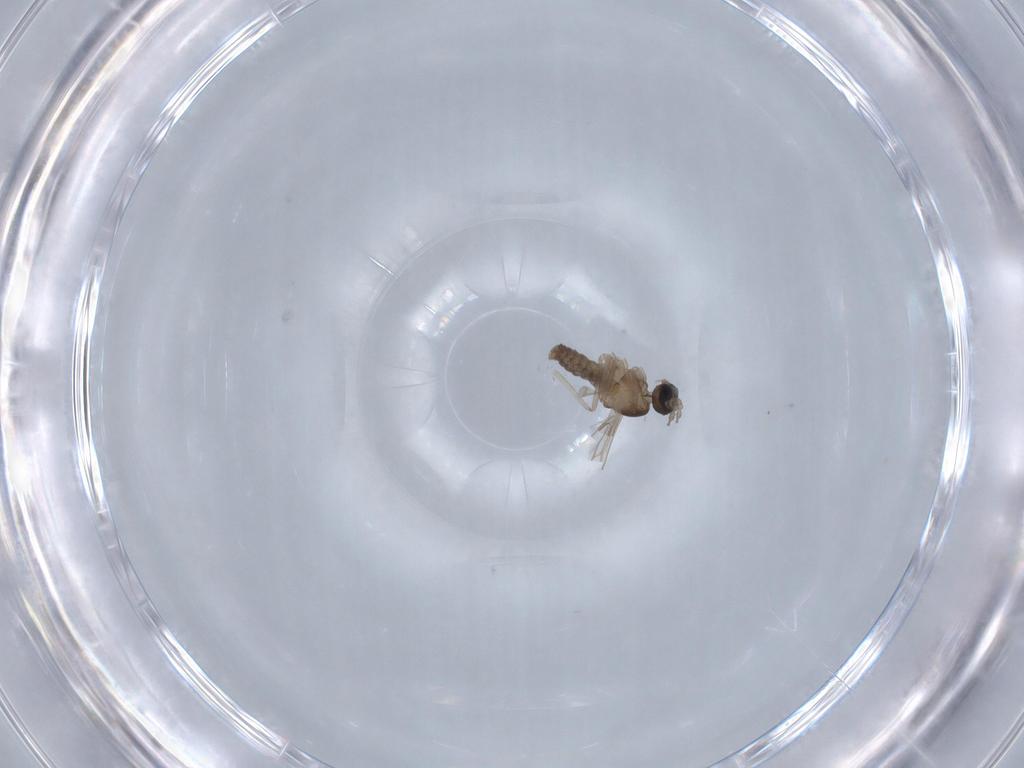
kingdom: Animalia
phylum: Arthropoda
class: Insecta
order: Diptera
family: Cecidomyiidae
